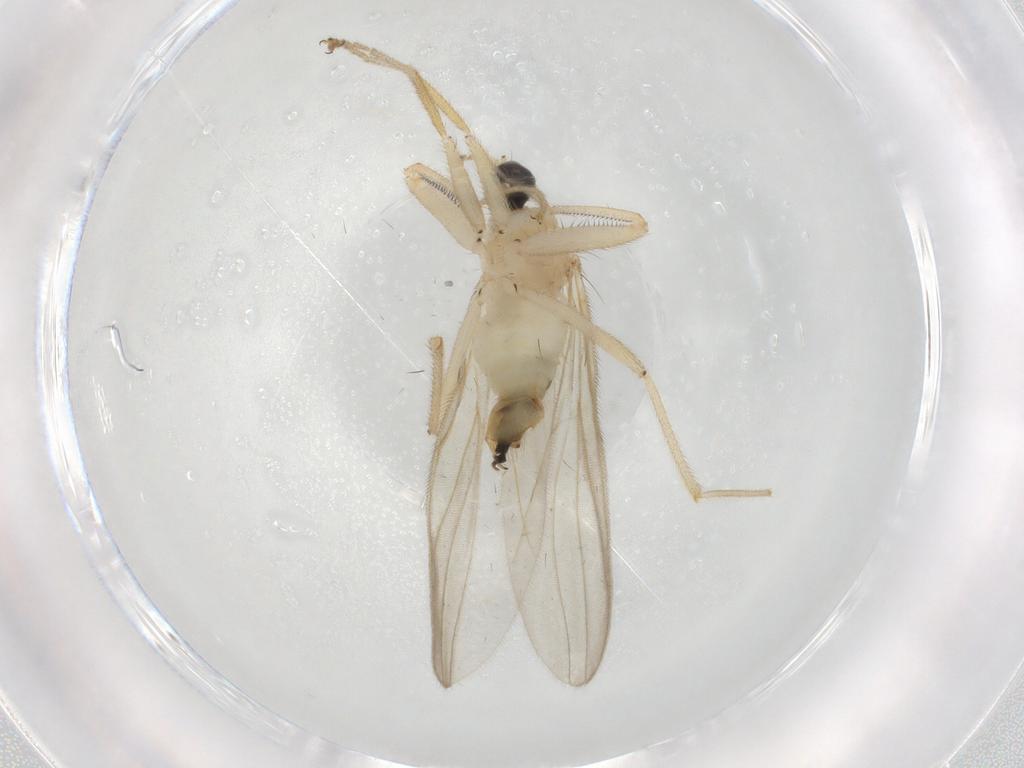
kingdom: Animalia
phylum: Arthropoda
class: Insecta
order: Diptera
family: Hybotidae
